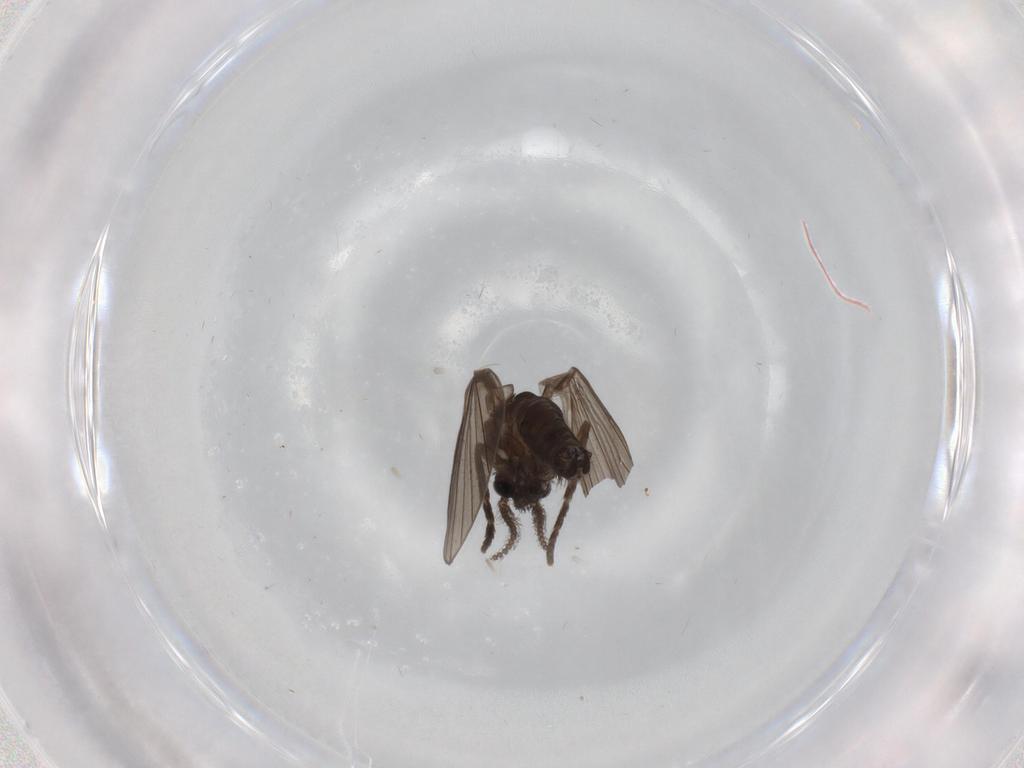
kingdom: Animalia
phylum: Arthropoda
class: Insecta
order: Diptera
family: Psychodidae
